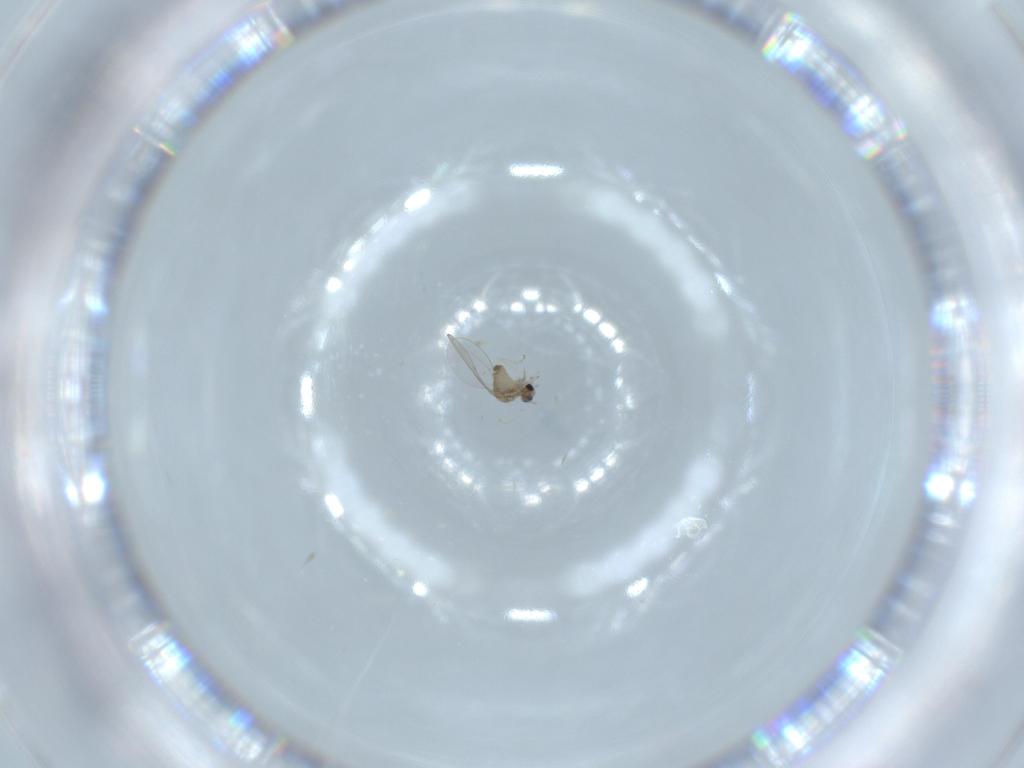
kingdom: Animalia
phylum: Arthropoda
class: Insecta
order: Diptera
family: Cecidomyiidae
